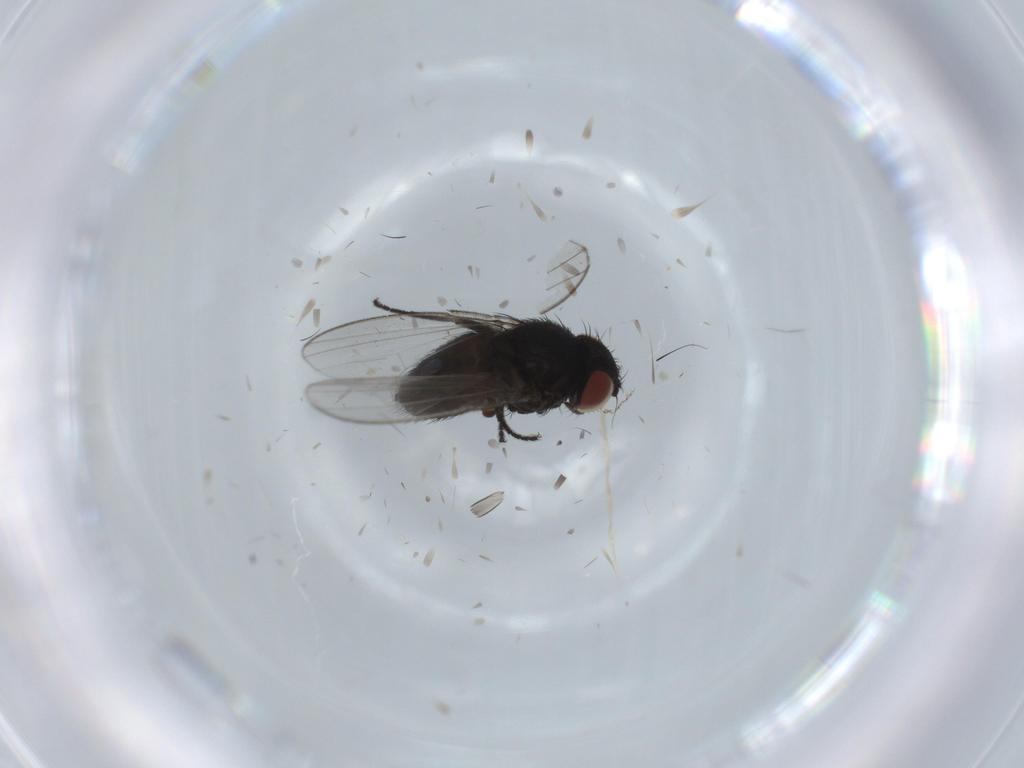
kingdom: Animalia
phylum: Arthropoda
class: Insecta
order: Diptera
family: Milichiidae
